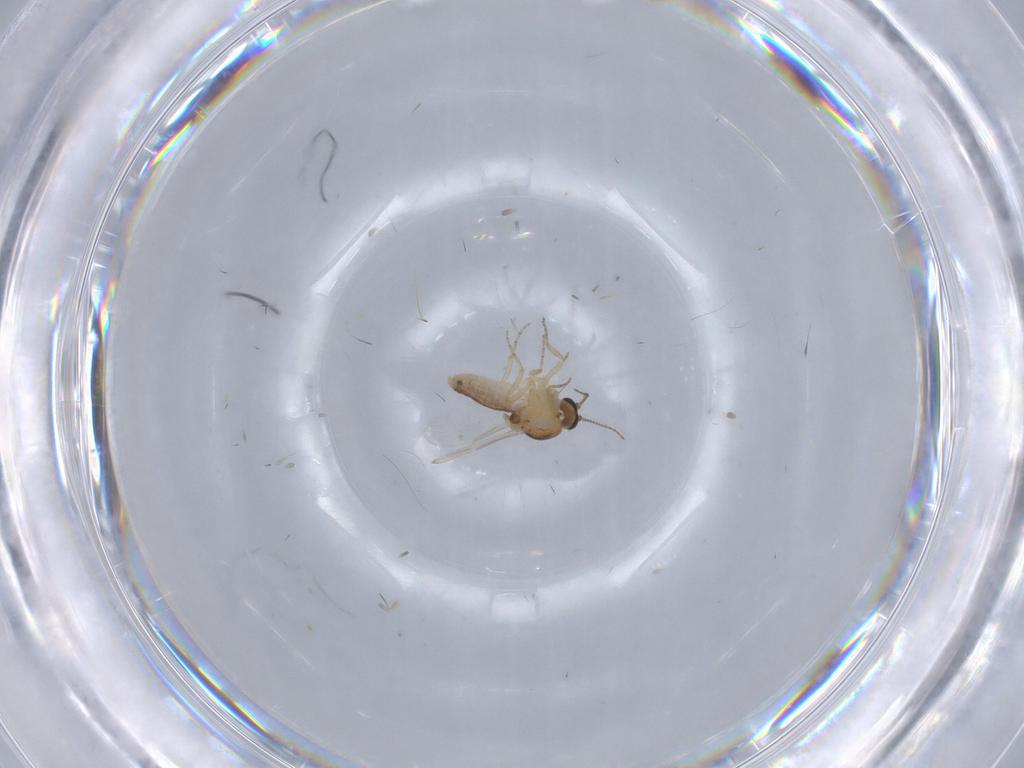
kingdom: Animalia
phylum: Arthropoda
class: Insecta
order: Diptera
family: Ceratopogonidae
